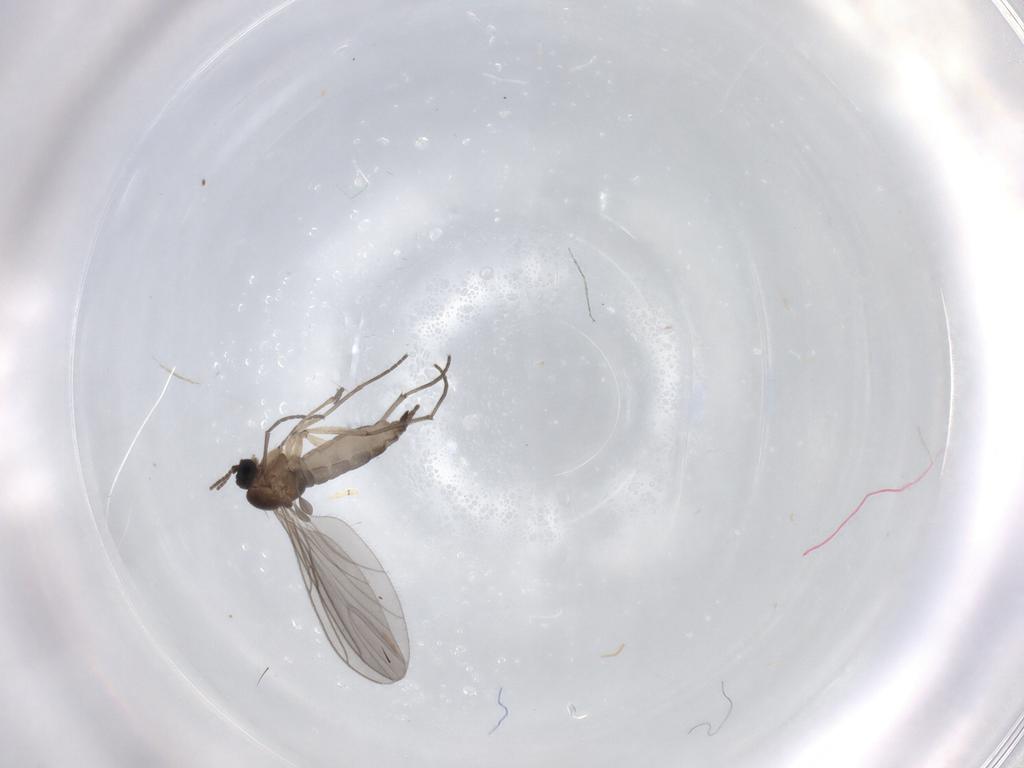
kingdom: Animalia
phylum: Arthropoda
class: Insecta
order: Diptera
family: Sciaridae
